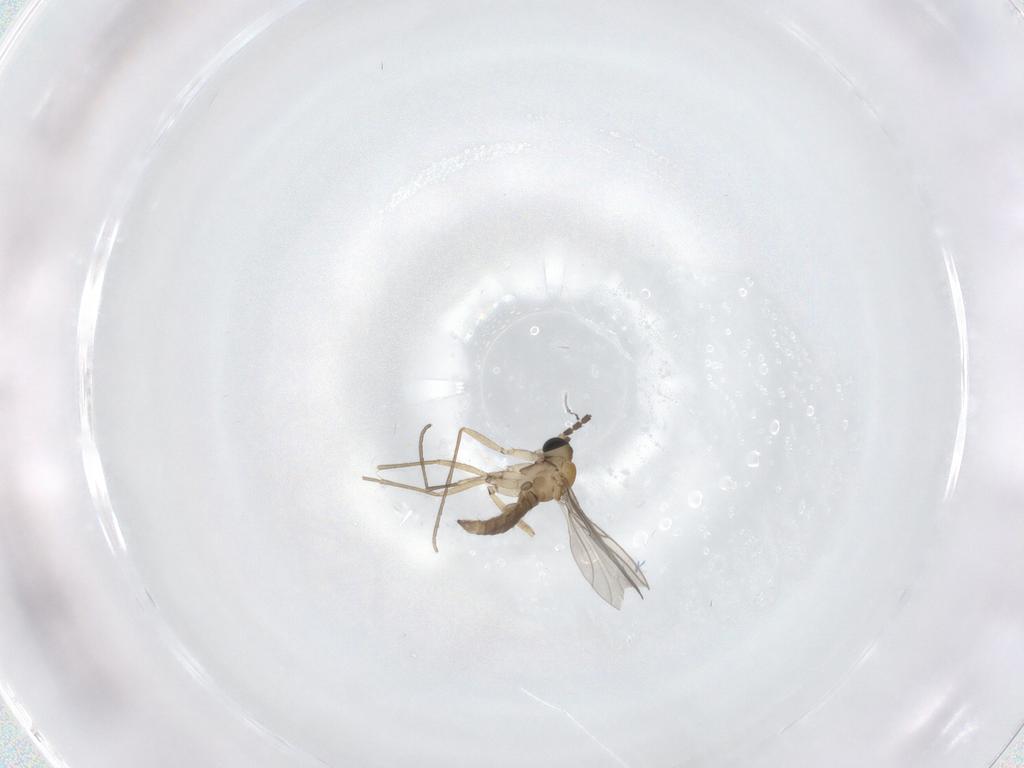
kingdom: Animalia
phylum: Arthropoda
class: Insecta
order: Diptera
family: Sciaridae
